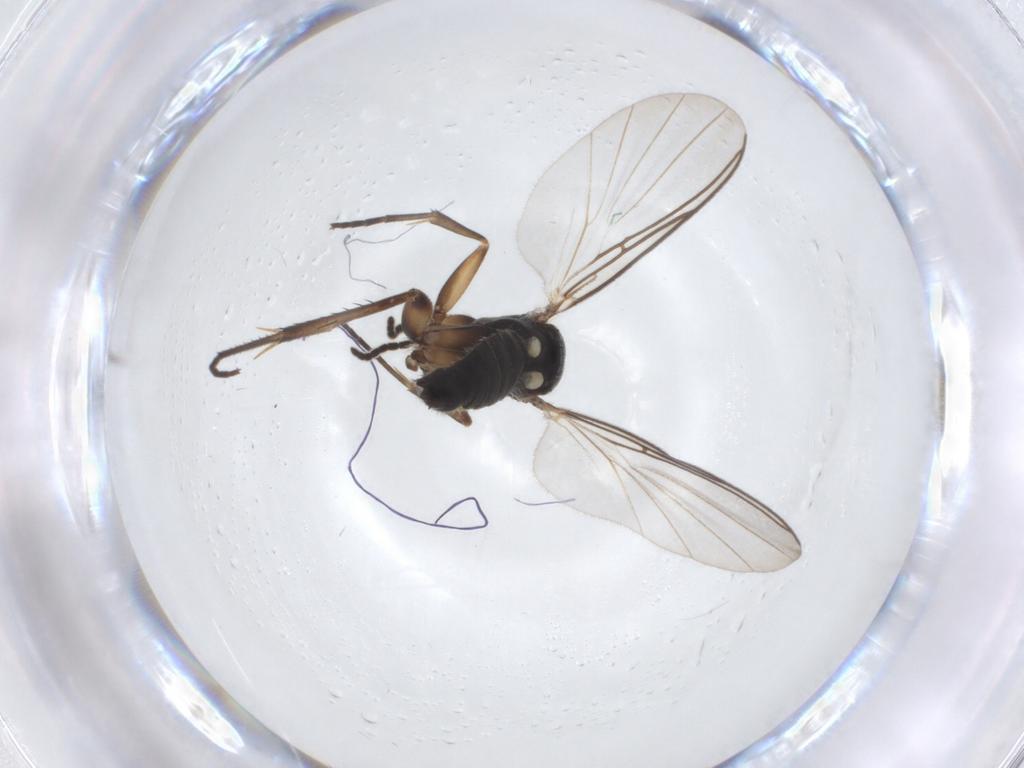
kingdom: Animalia
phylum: Arthropoda
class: Insecta
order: Diptera
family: Mycetophilidae
